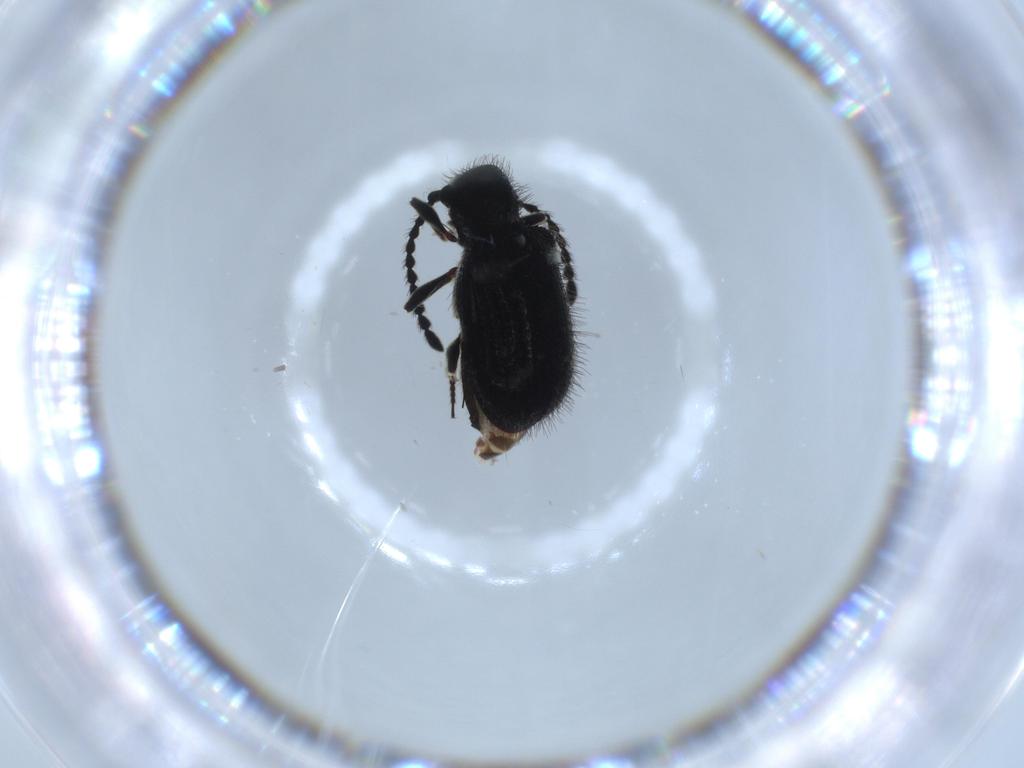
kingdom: Animalia
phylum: Arthropoda
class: Insecta
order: Coleoptera
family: Ptinidae
